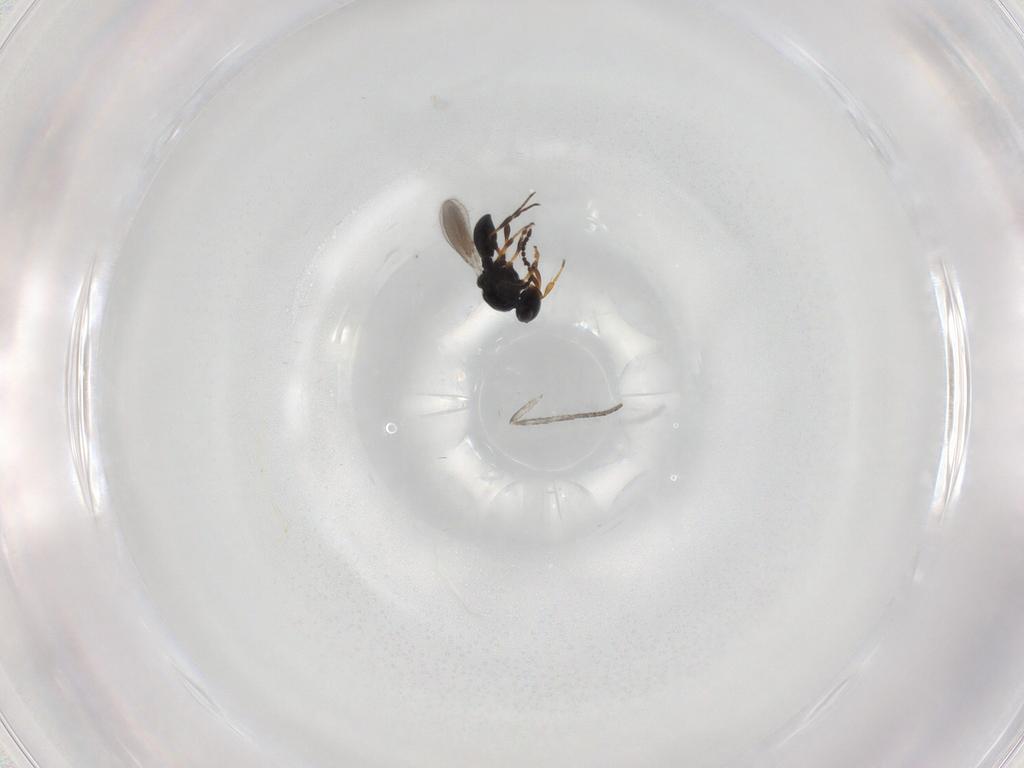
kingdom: Animalia
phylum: Arthropoda
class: Insecta
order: Hymenoptera
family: Platygastridae
